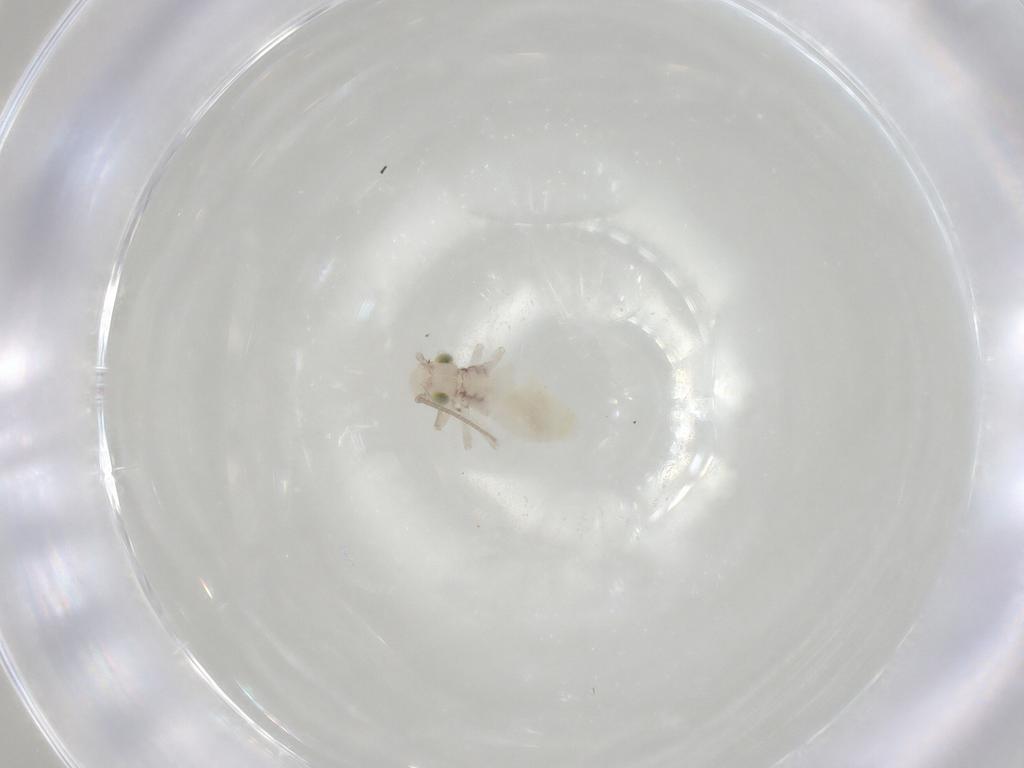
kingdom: Animalia
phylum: Arthropoda
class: Insecta
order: Psocodea
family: Caeciliusidae
